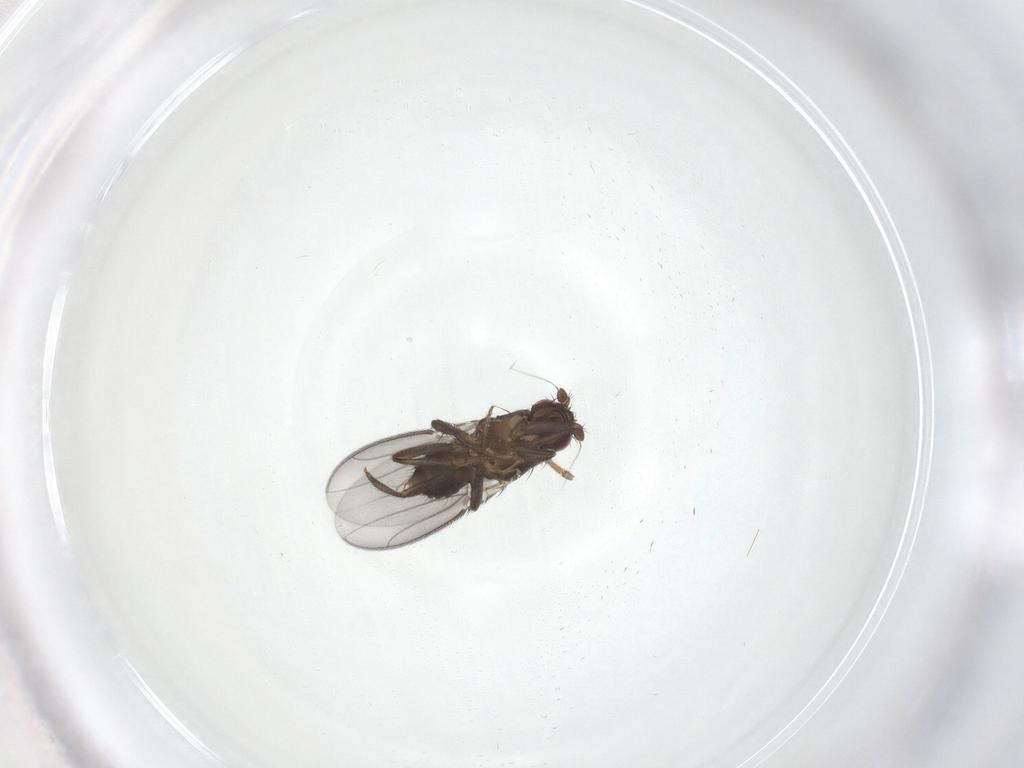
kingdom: Animalia
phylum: Arthropoda
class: Insecta
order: Diptera
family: Sphaeroceridae
